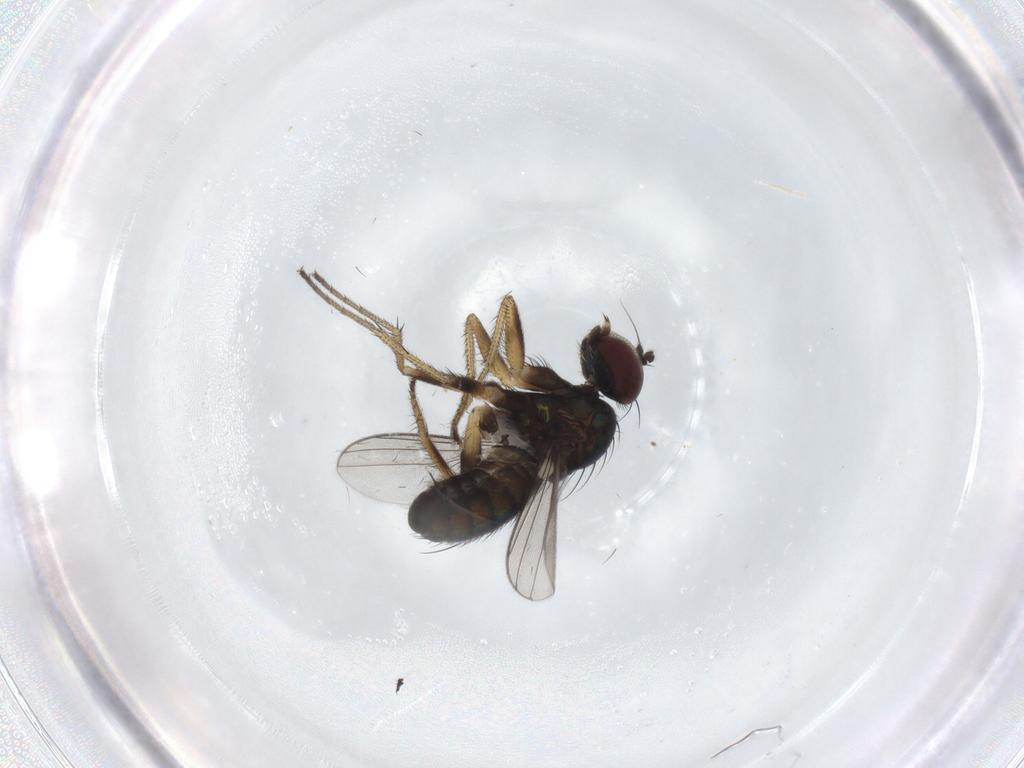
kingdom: Animalia
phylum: Arthropoda
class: Insecta
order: Diptera
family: Dolichopodidae
